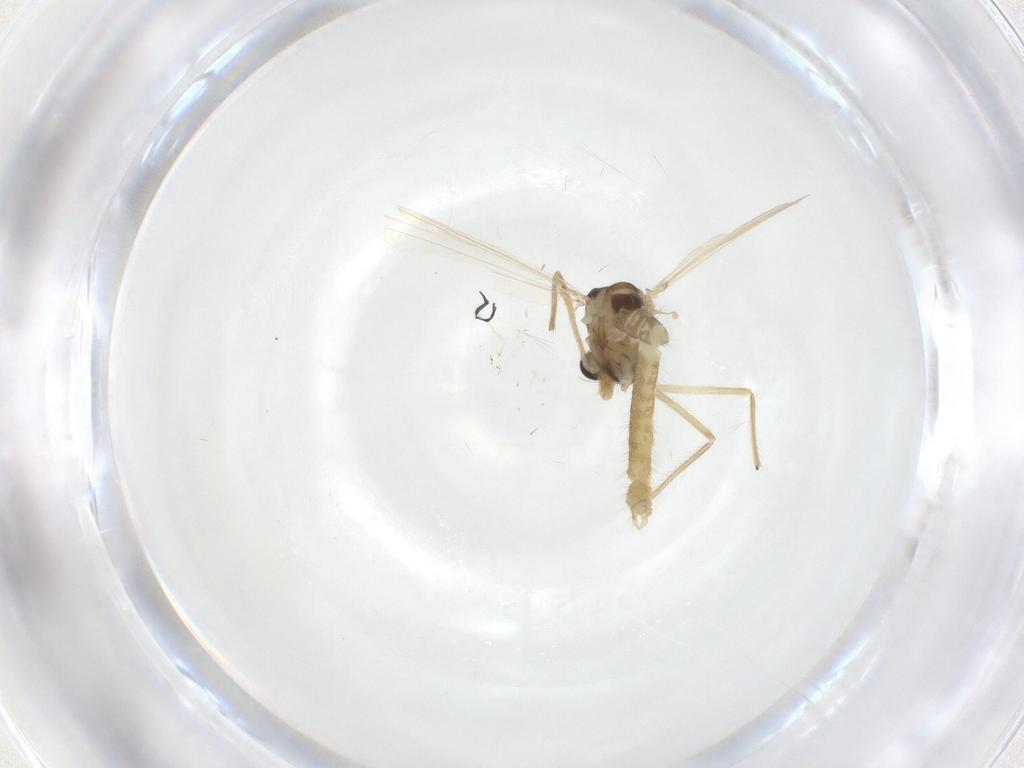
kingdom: Animalia
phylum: Arthropoda
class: Insecta
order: Diptera
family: Chironomidae
